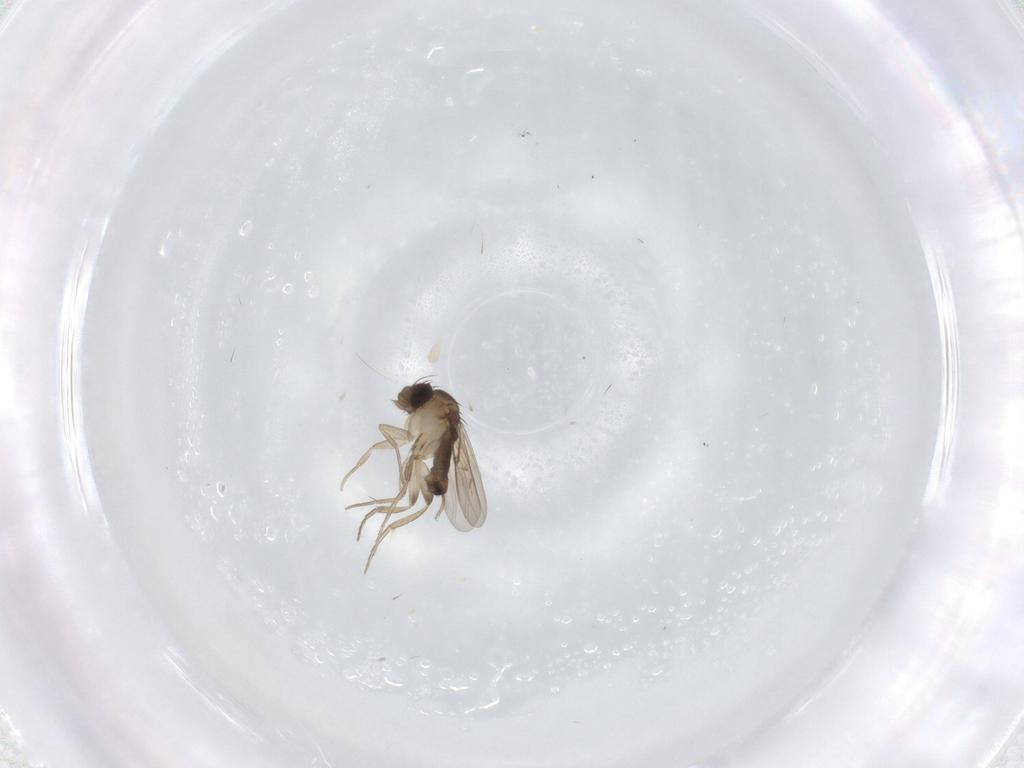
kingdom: Animalia
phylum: Arthropoda
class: Insecta
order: Diptera
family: Phoridae
